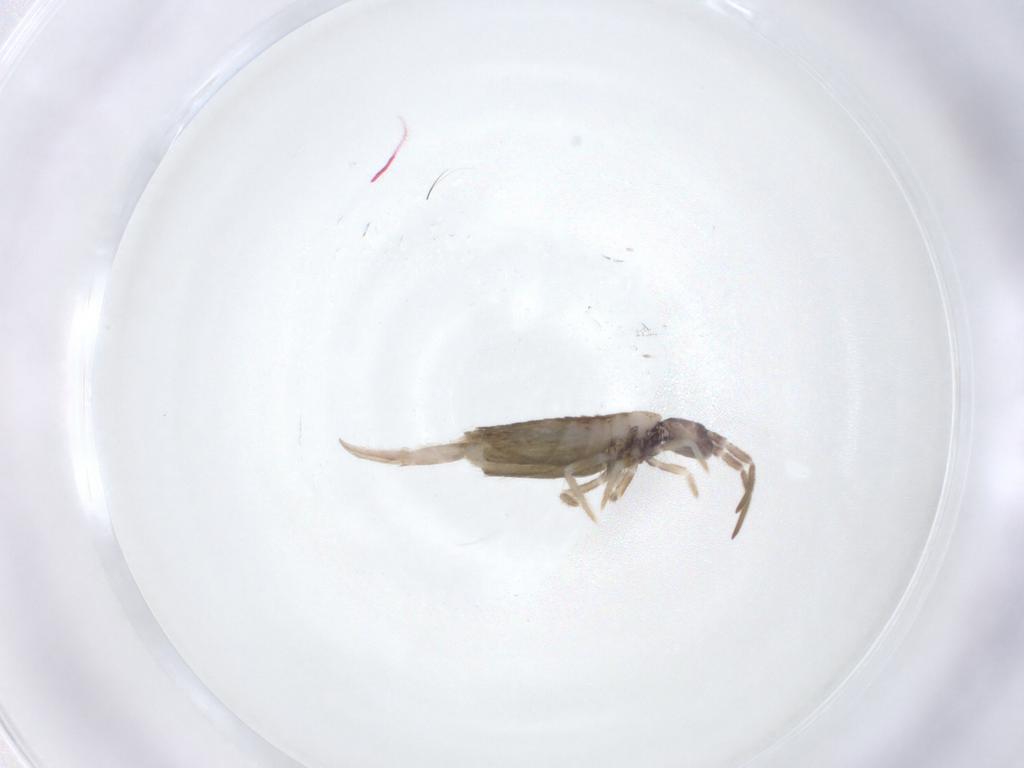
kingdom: Animalia
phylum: Arthropoda
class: Collembola
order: Entomobryomorpha
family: Entomobryidae
